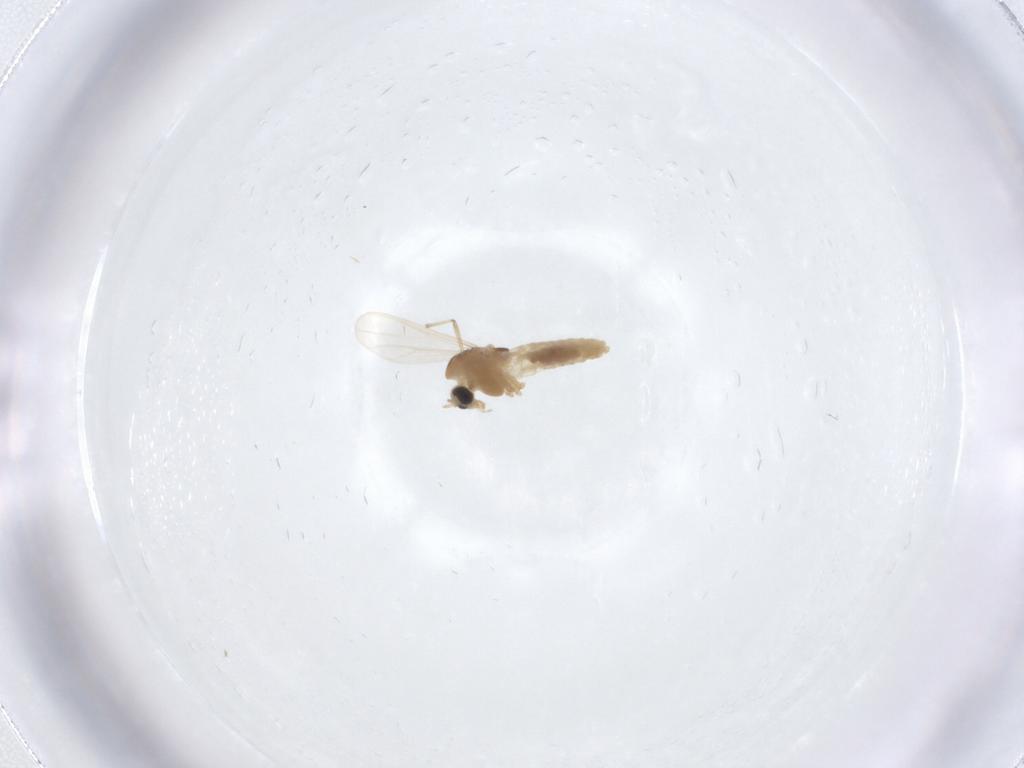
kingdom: Animalia
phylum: Arthropoda
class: Insecta
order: Diptera
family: Chironomidae
